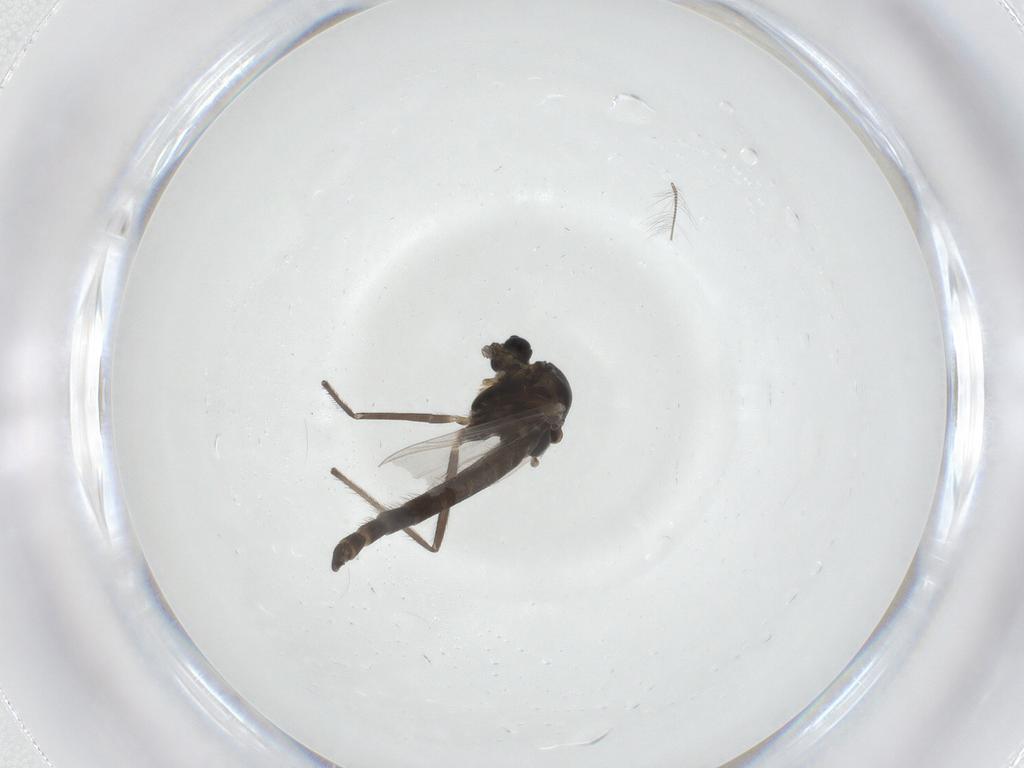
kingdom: Animalia
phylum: Arthropoda
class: Insecta
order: Diptera
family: Chironomidae
